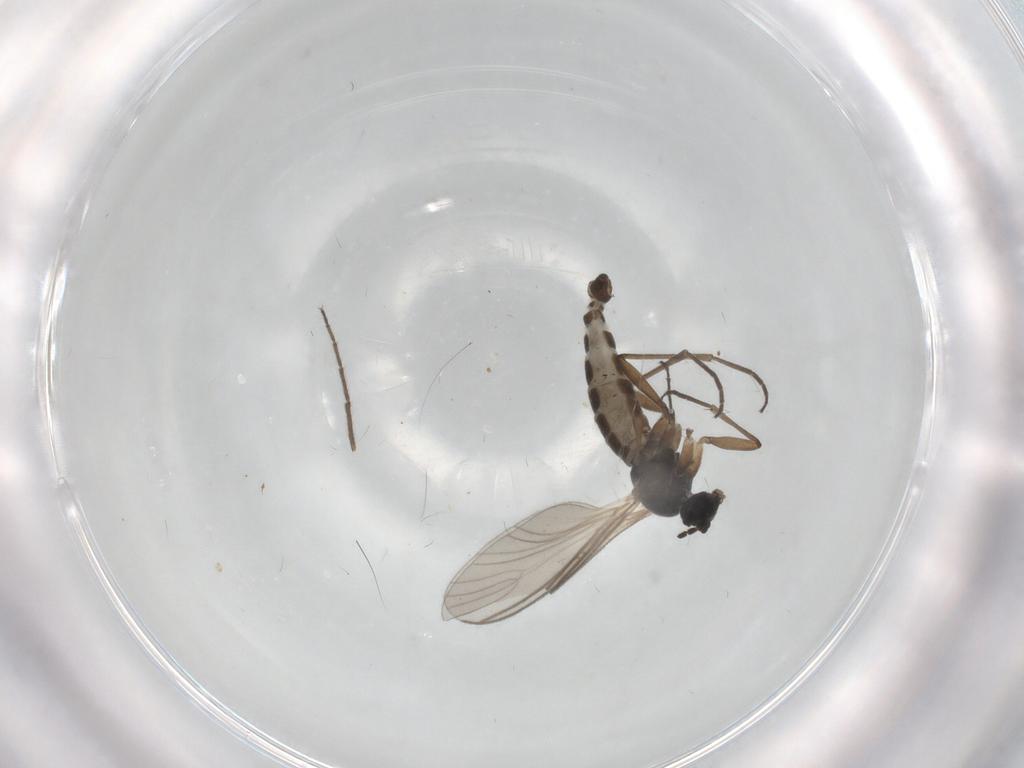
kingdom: Animalia
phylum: Arthropoda
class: Insecta
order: Diptera
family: Sciaridae
